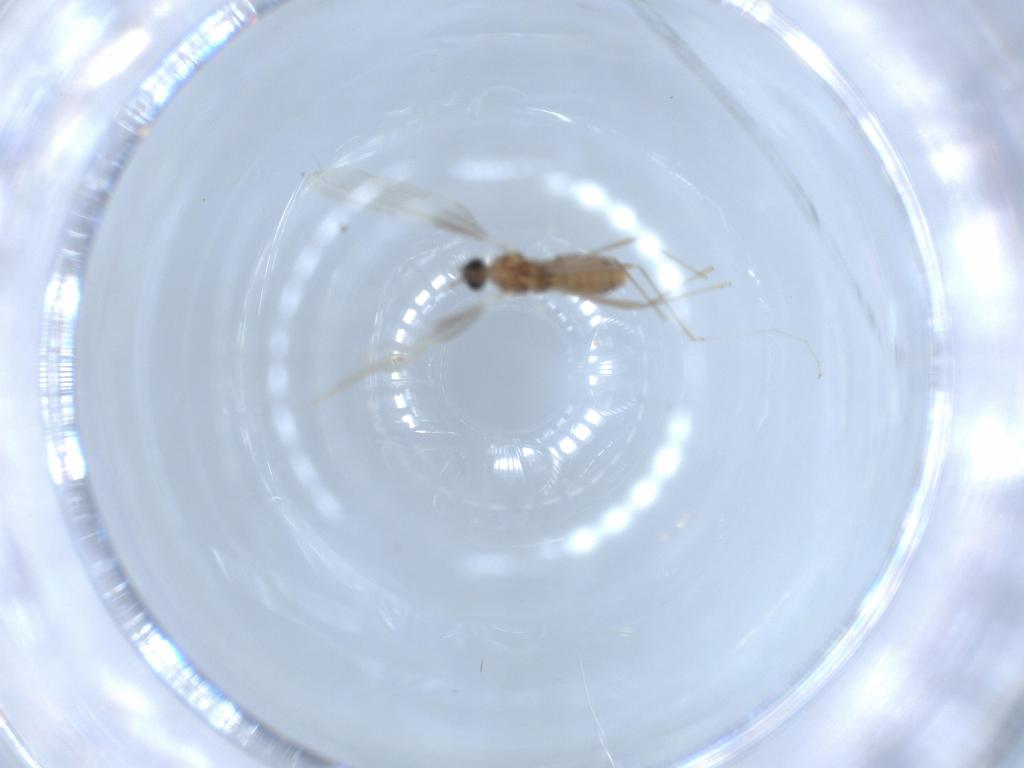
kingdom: Animalia
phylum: Arthropoda
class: Insecta
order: Diptera
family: Cecidomyiidae
